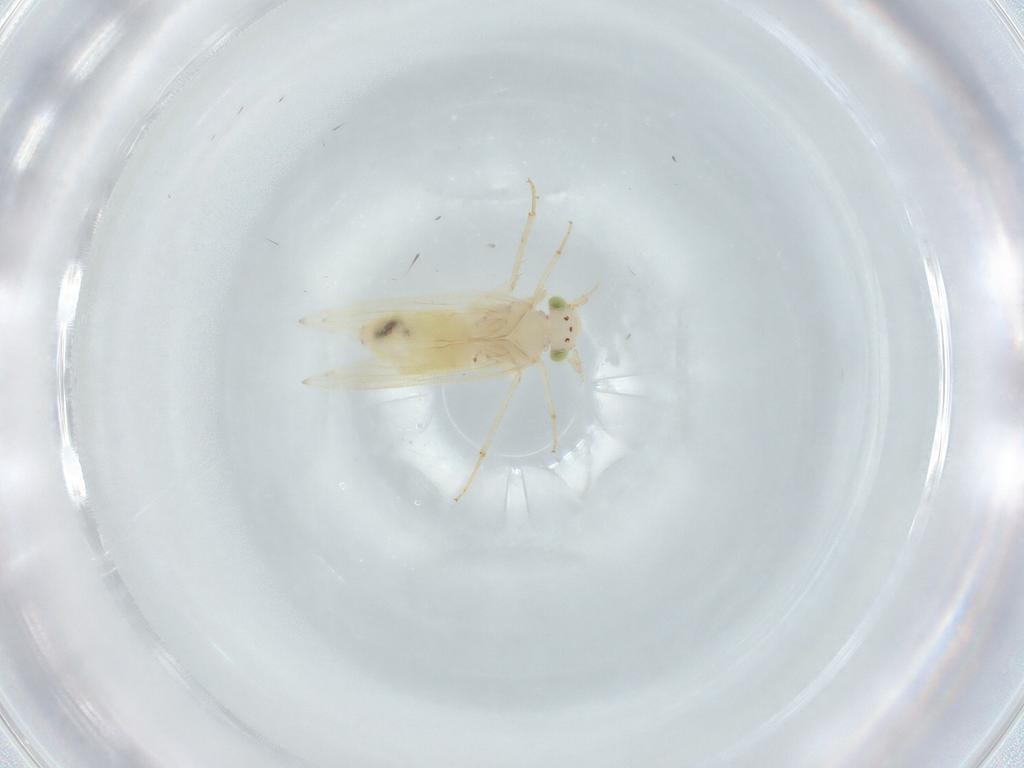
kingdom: Animalia
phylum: Arthropoda
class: Insecta
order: Psocodea
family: Lepidopsocidae
